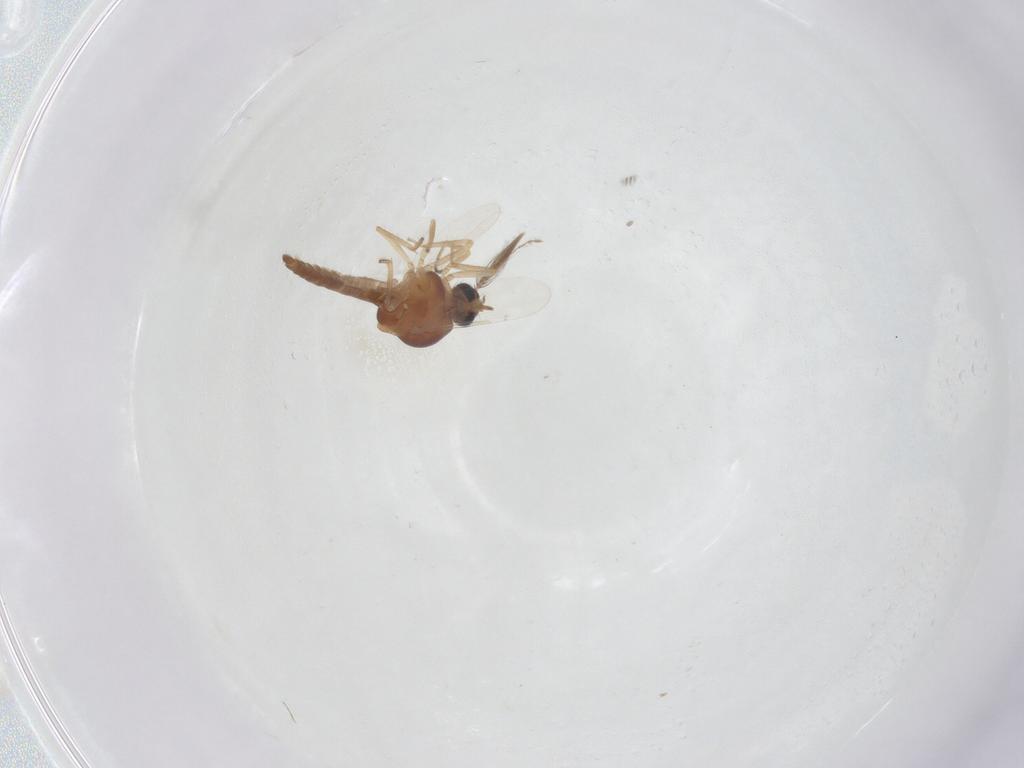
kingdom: Animalia
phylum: Arthropoda
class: Insecta
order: Diptera
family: Ceratopogonidae
